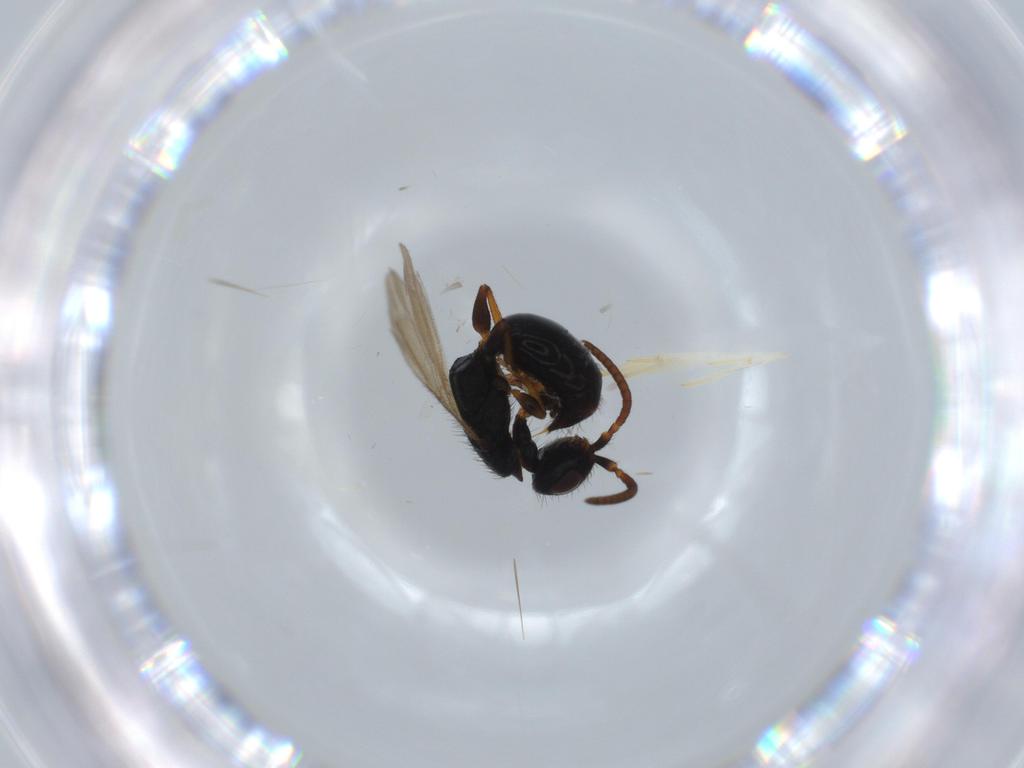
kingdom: Animalia
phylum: Arthropoda
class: Insecta
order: Hymenoptera
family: Bethylidae
